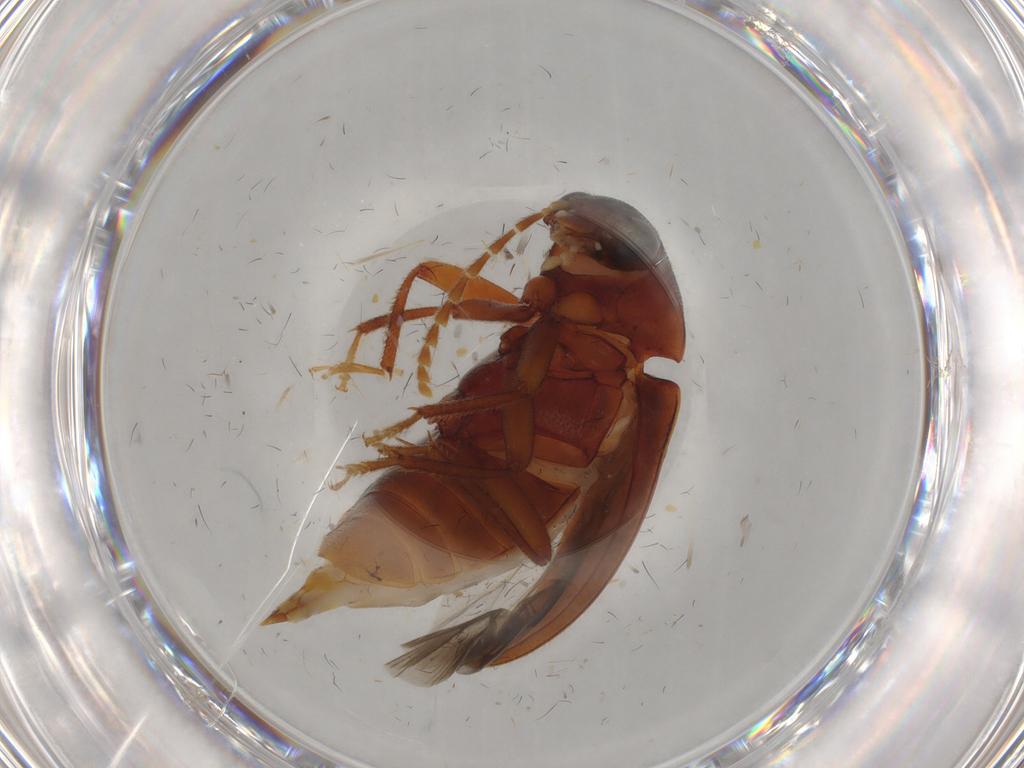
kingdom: Animalia
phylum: Arthropoda
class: Insecta
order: Coleoptera
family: Ptilodactylidae
